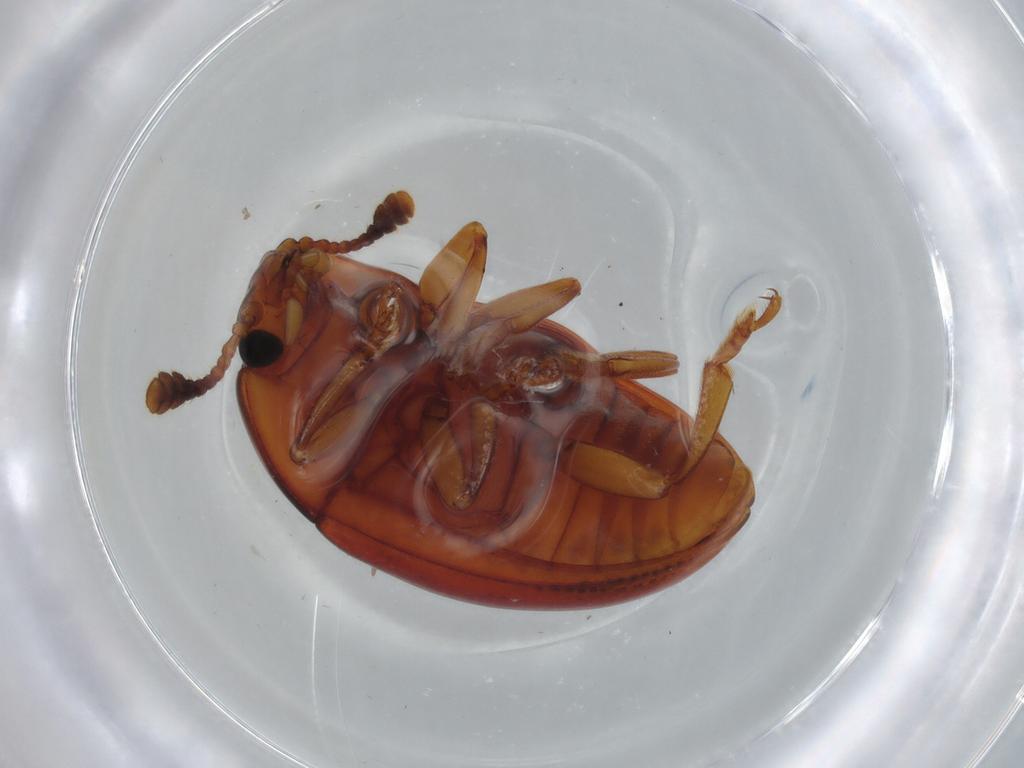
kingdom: Animalia
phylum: Arthropoda
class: Insecta
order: Coleoptera
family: Erotylidae
